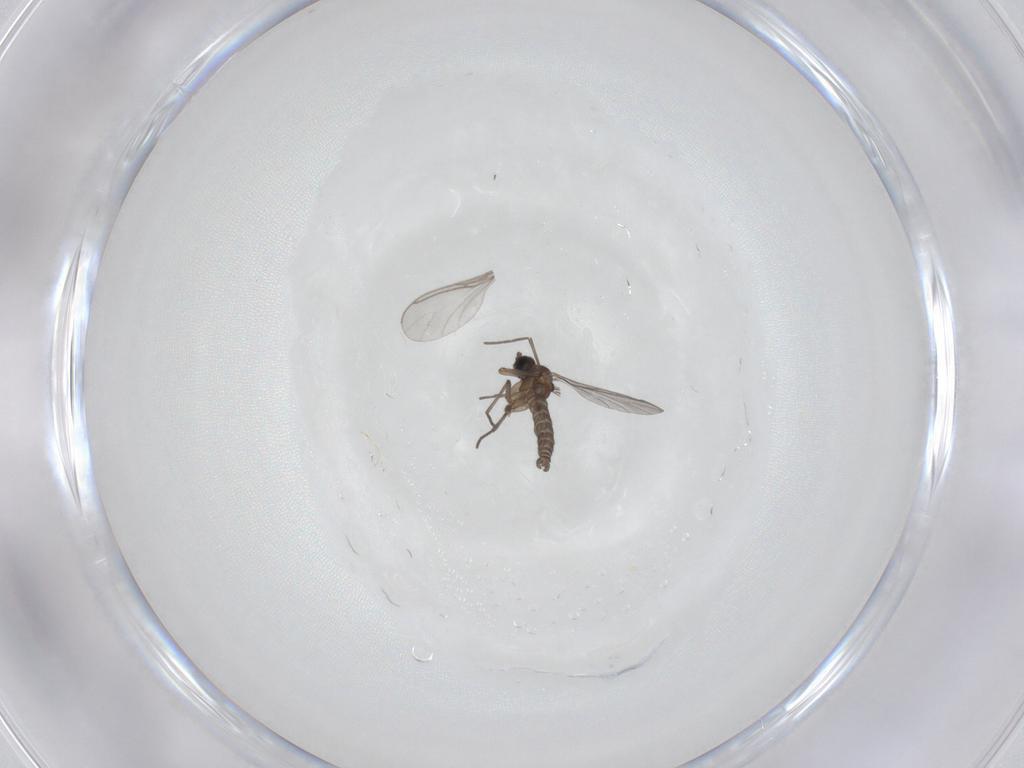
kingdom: Animalia
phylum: Arthropoda
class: Insecta
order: Diptera
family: Sciaridae
